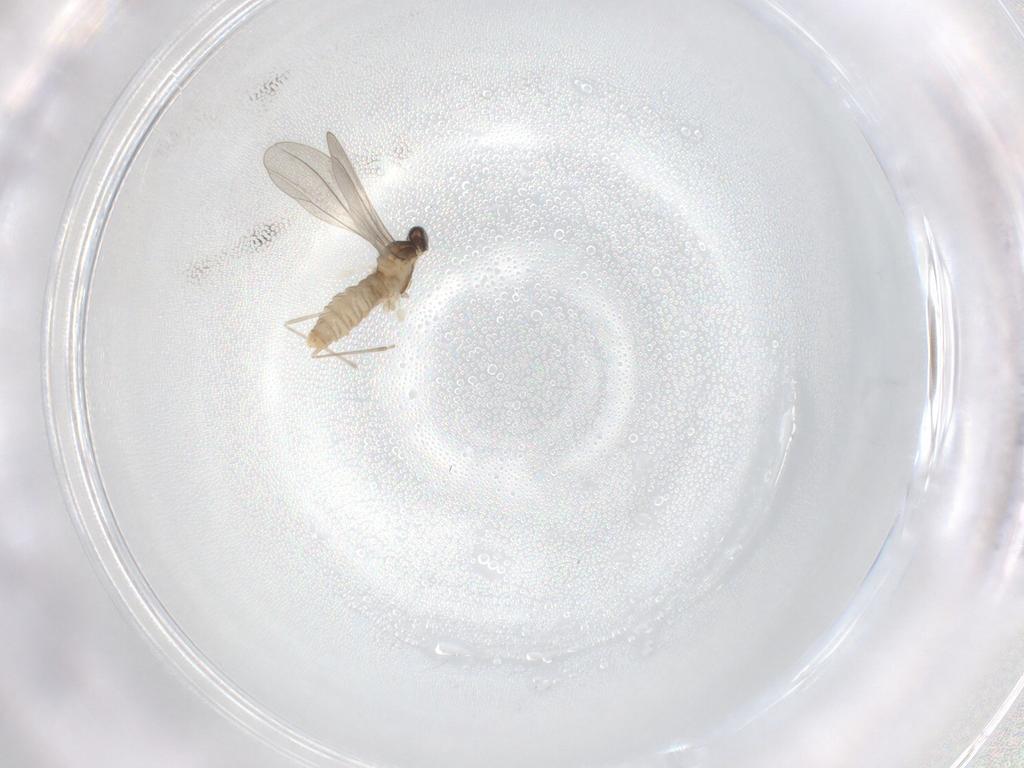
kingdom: Animalia
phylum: Arthropoda
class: Insecta
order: Diptera
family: Cecidomyiidae
